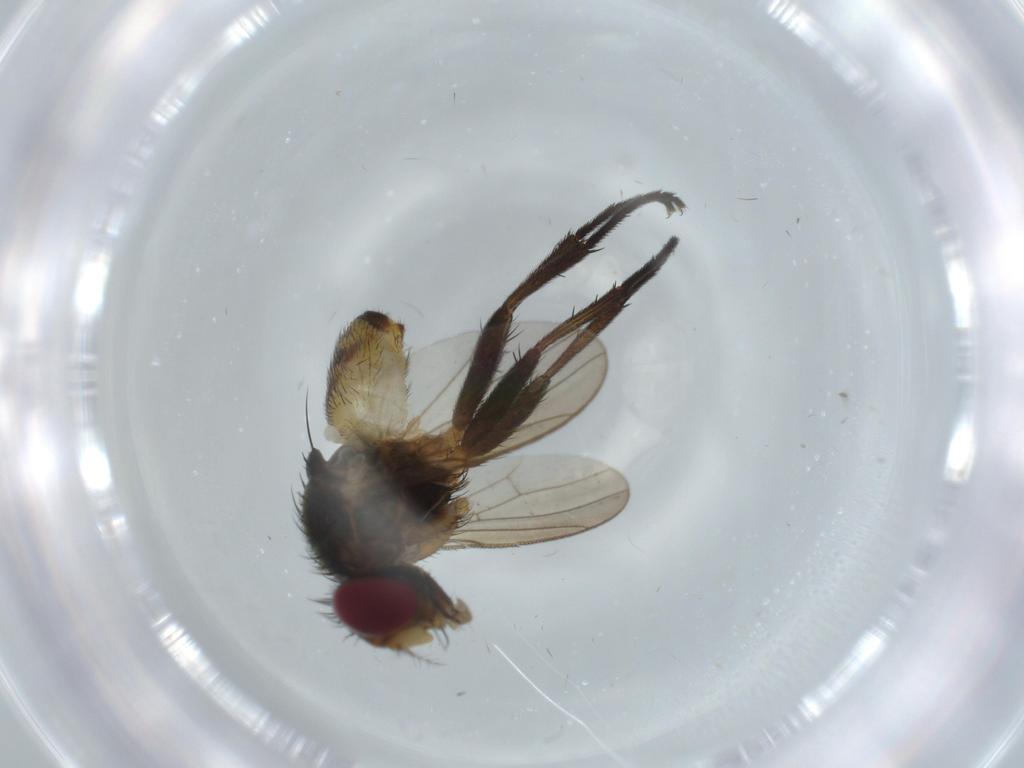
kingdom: Animalia
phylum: Arthropoda
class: Insecta
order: Diptera
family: Anthomyiidae
